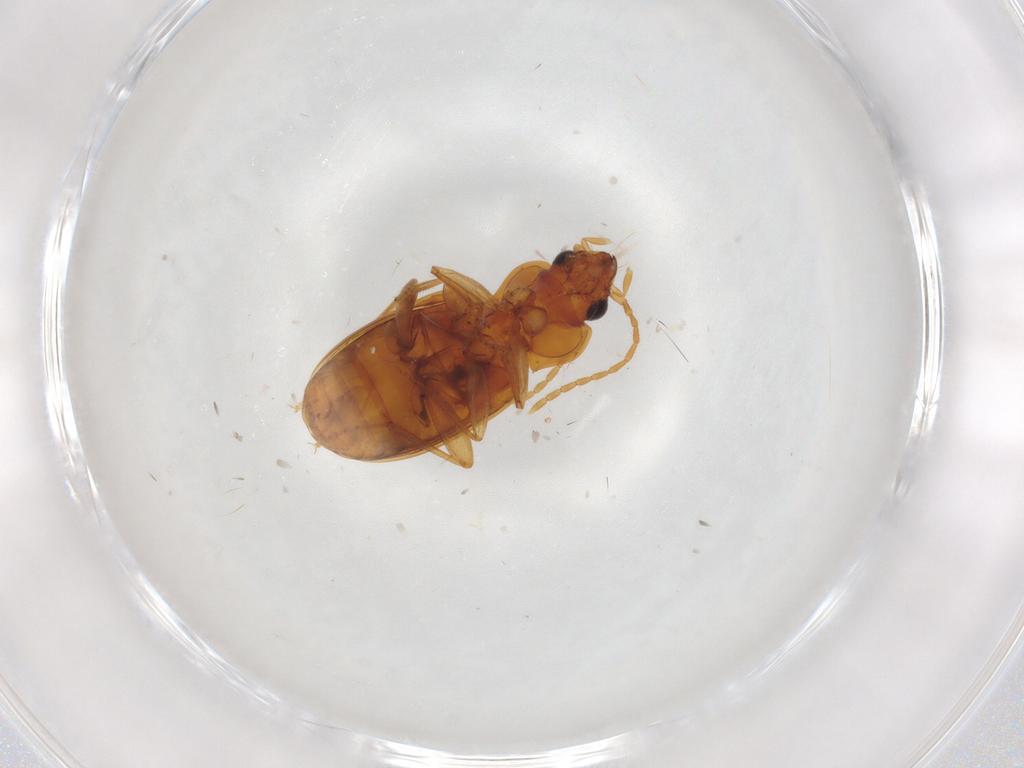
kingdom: Animalia
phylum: Arthropoda
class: Insecta
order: Coleoptera
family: Carabidae
